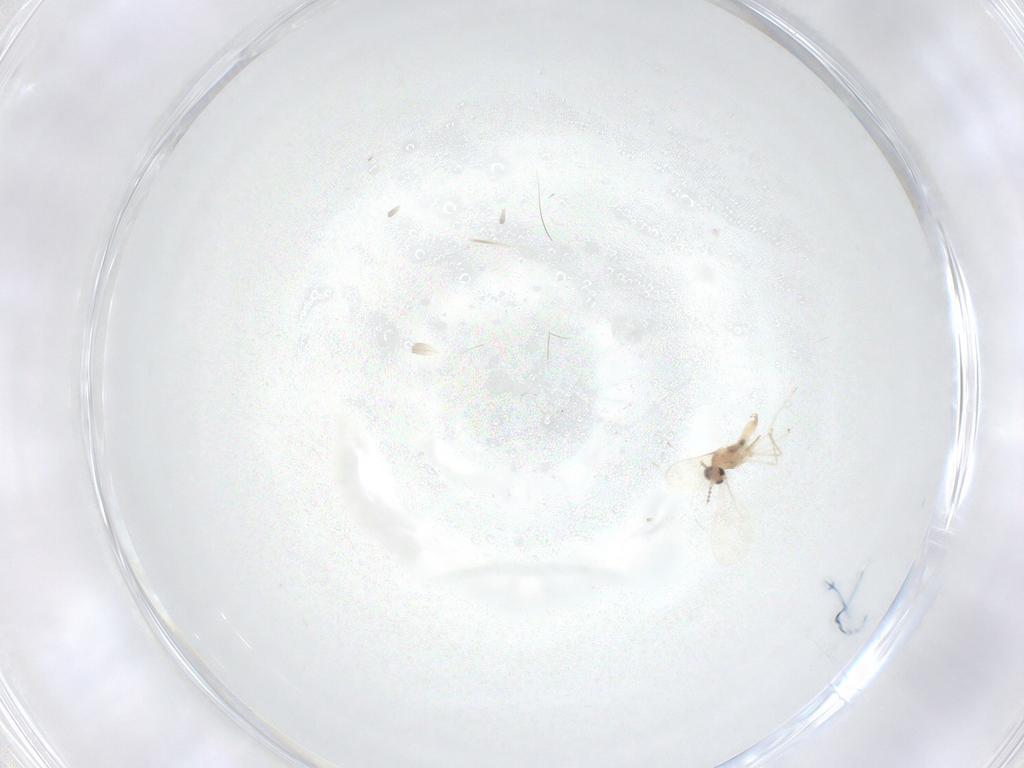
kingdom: Animalia
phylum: Arthropoda
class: Insecta
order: Diptera
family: Cecidomyiidae
